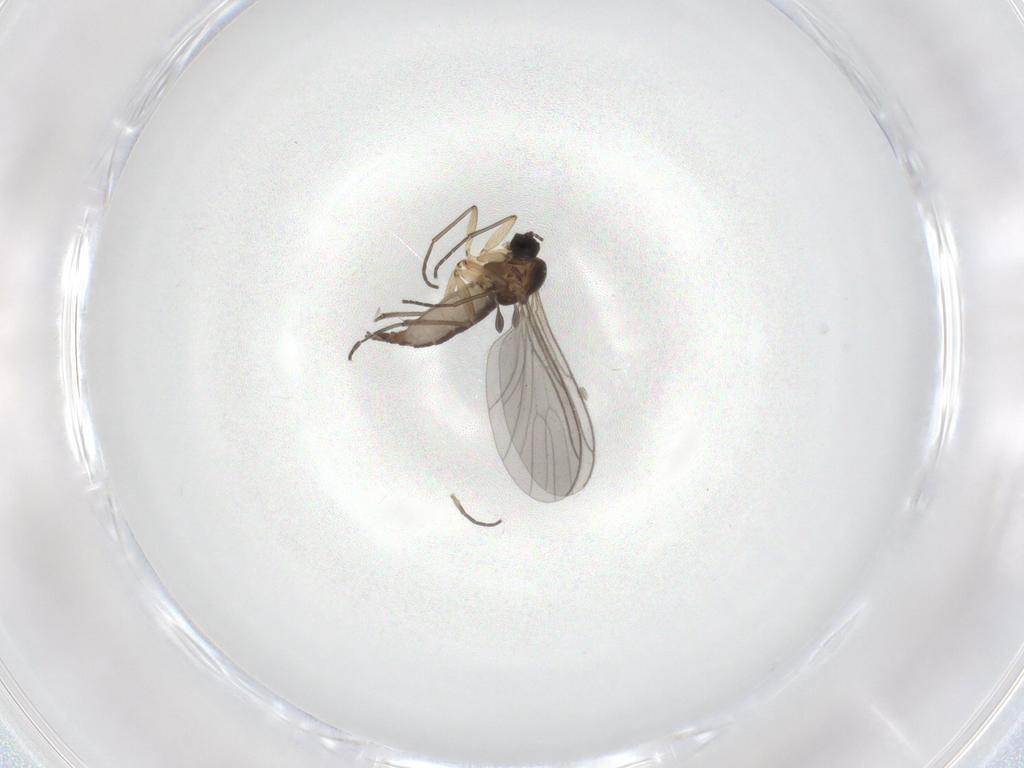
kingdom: Animalia
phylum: Arthropoda
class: Insecta
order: Diptera
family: Sciaridae
